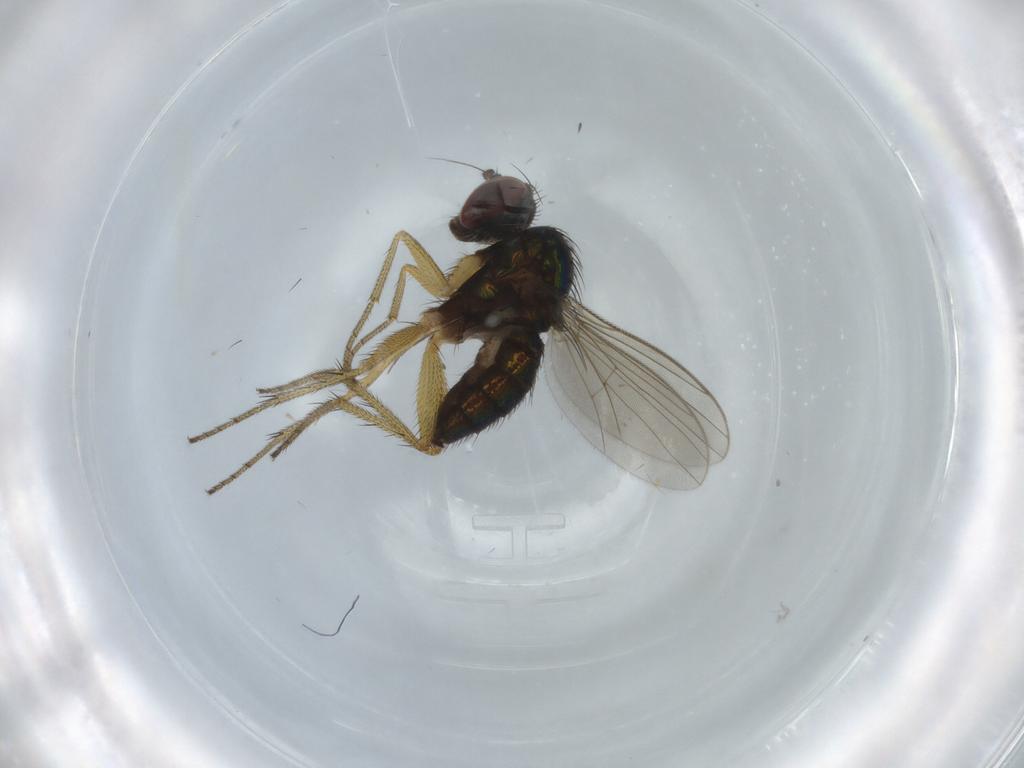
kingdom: Animalia
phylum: Arthropoda
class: Insecta
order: Diptera
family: Dolichopodidae
